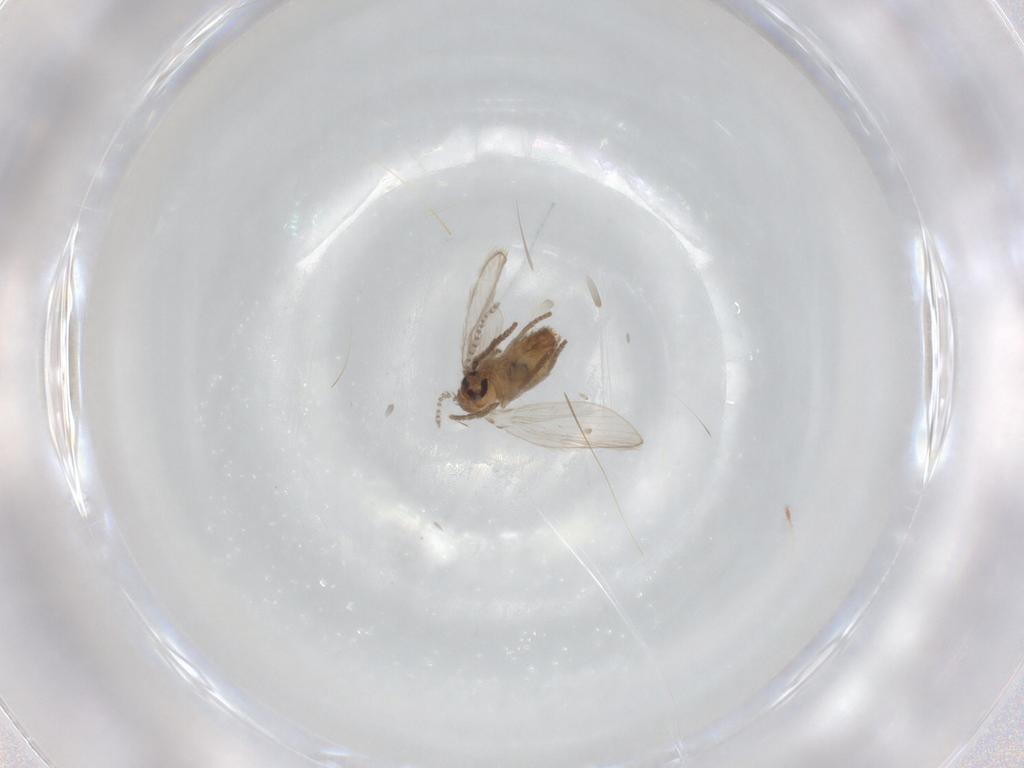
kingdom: Animalia
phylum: Arthropoda
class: Insecta
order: Diptera
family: Psychodidae
